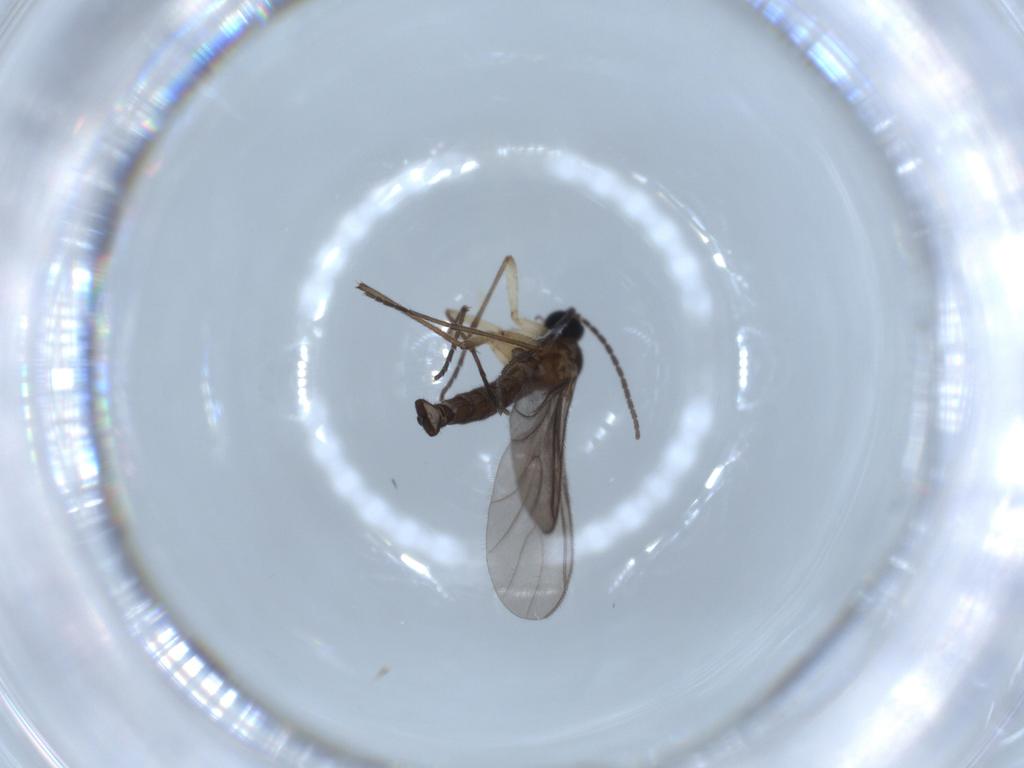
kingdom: Animalia
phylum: Arthropoda
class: Insecta
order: Diptera
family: Sciaridae
